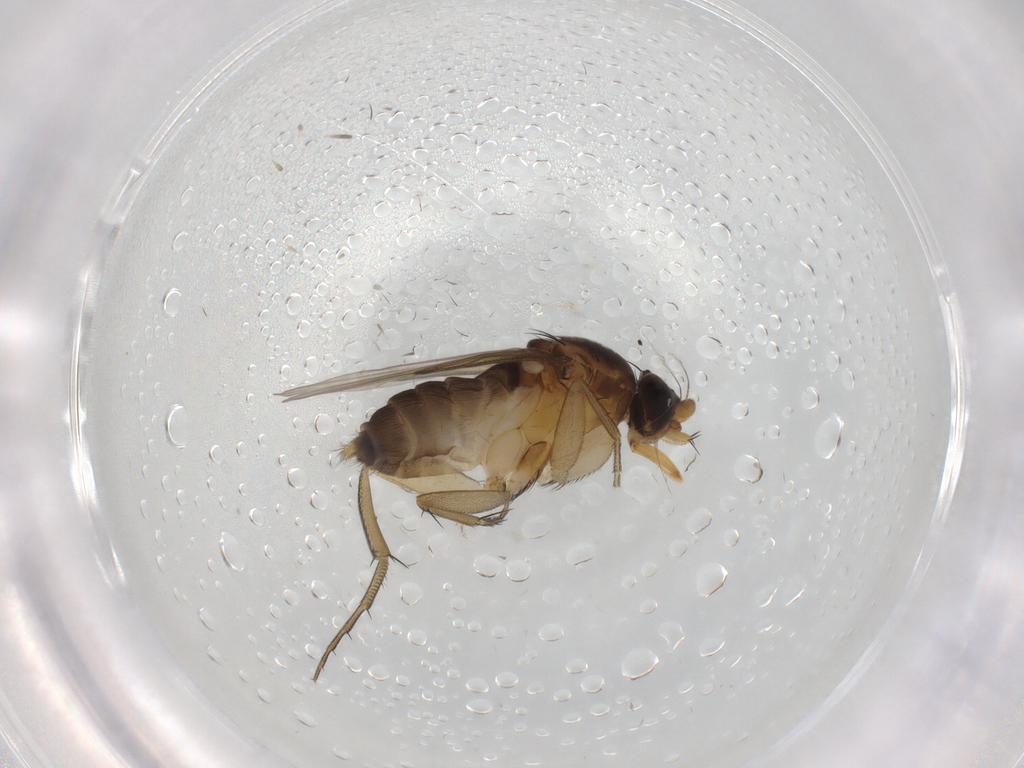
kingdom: Animalia
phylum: Arthropoda
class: Insecta
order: Diptera
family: Phoridae
